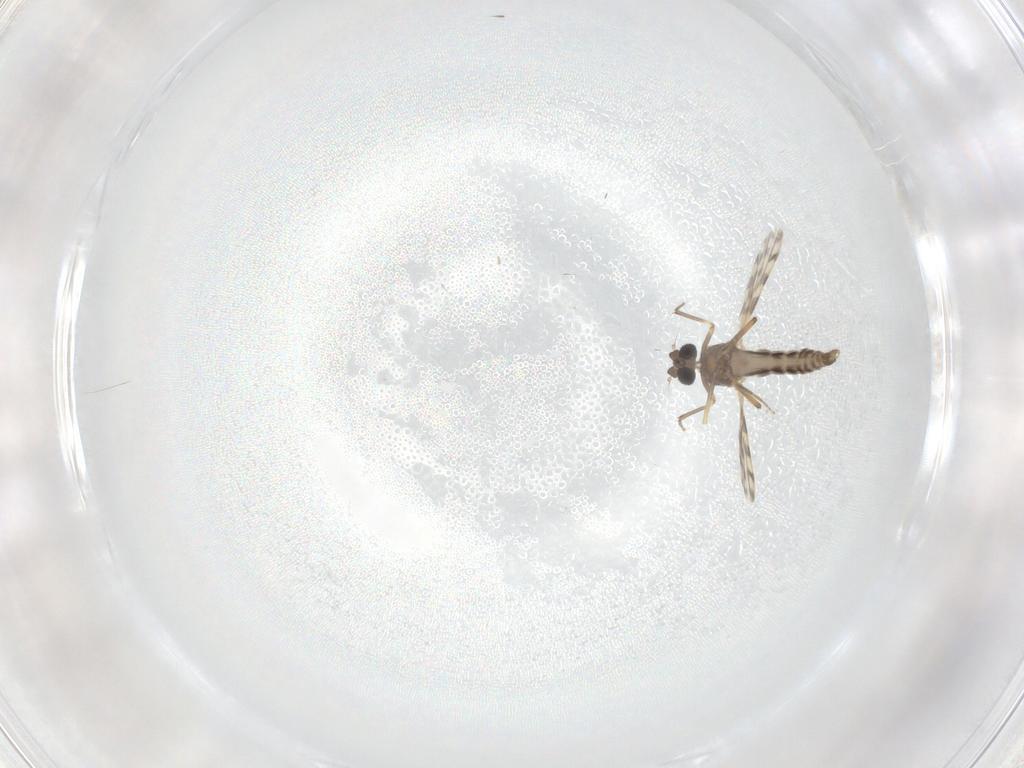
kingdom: Animalia
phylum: Arthropoda
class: Insecta
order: Diptera
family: Ceratopogonidae
